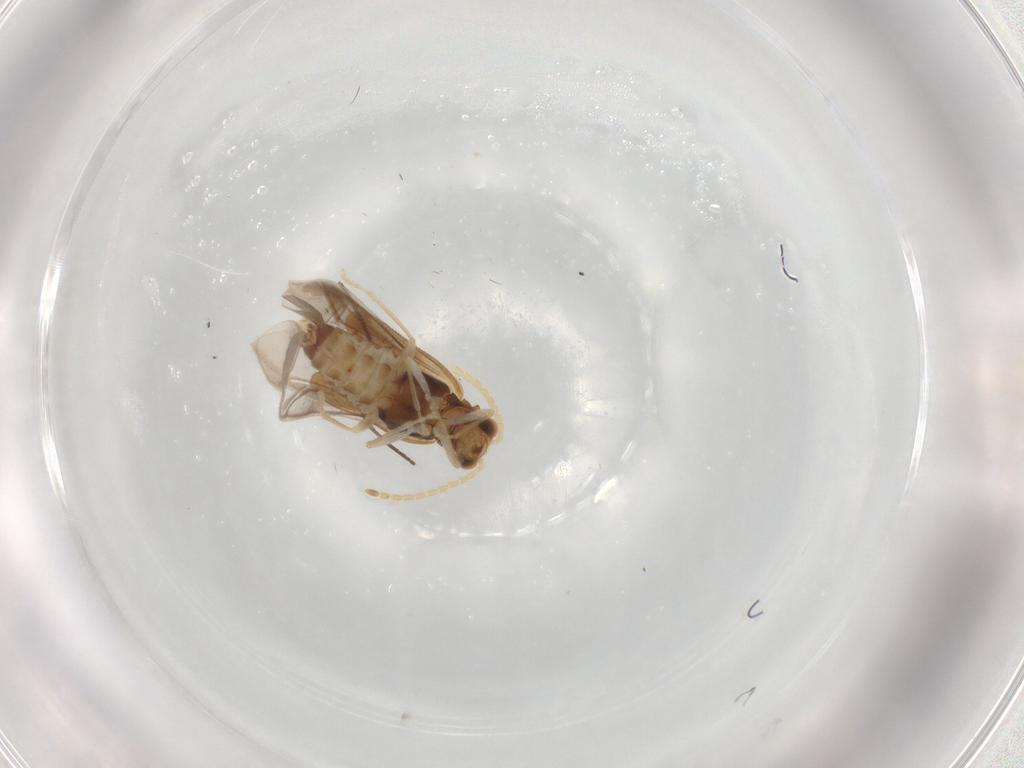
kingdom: Animalia
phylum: Arthropoda
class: Insecta
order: Coleoptera
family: Cantharidae
